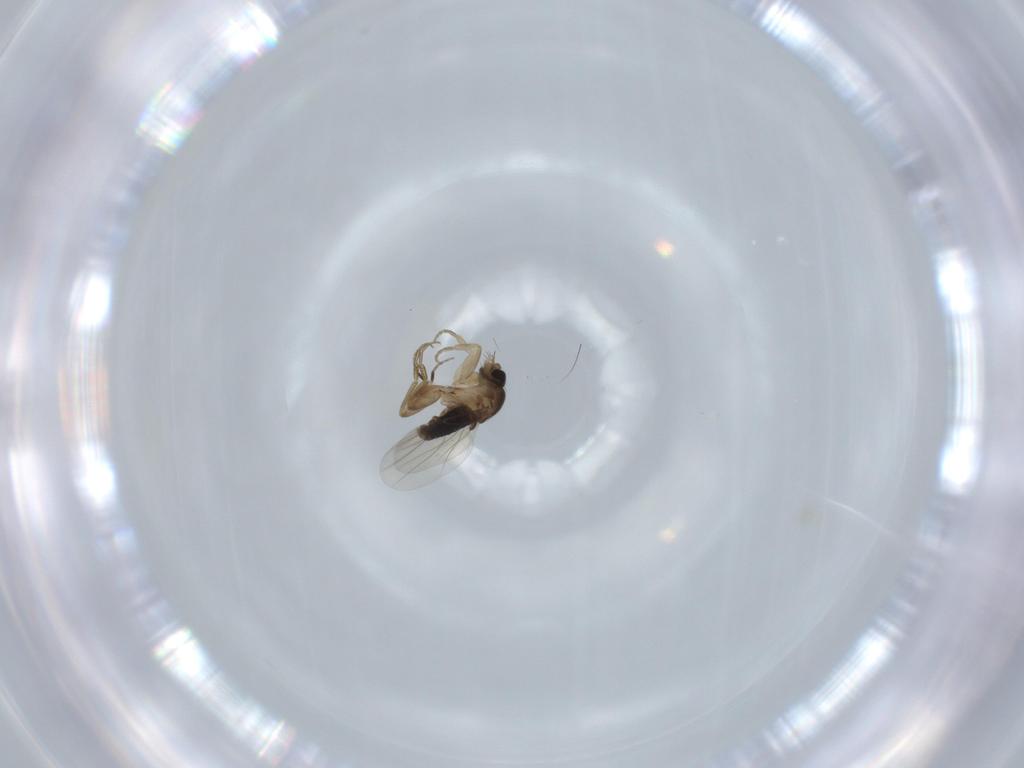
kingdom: Animalia
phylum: Arthropoda
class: Insecta
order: Diptera
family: Phoridae
